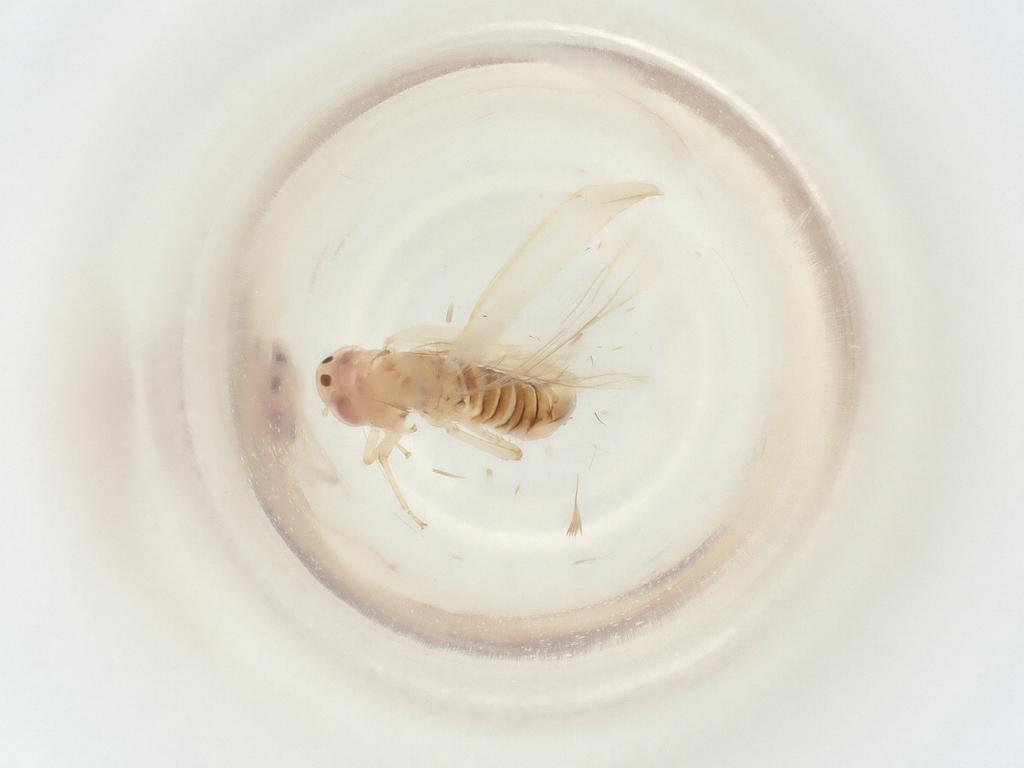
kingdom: Animalia
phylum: Arthropoda
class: Insecta
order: Hemiptera
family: Cicadellidae
